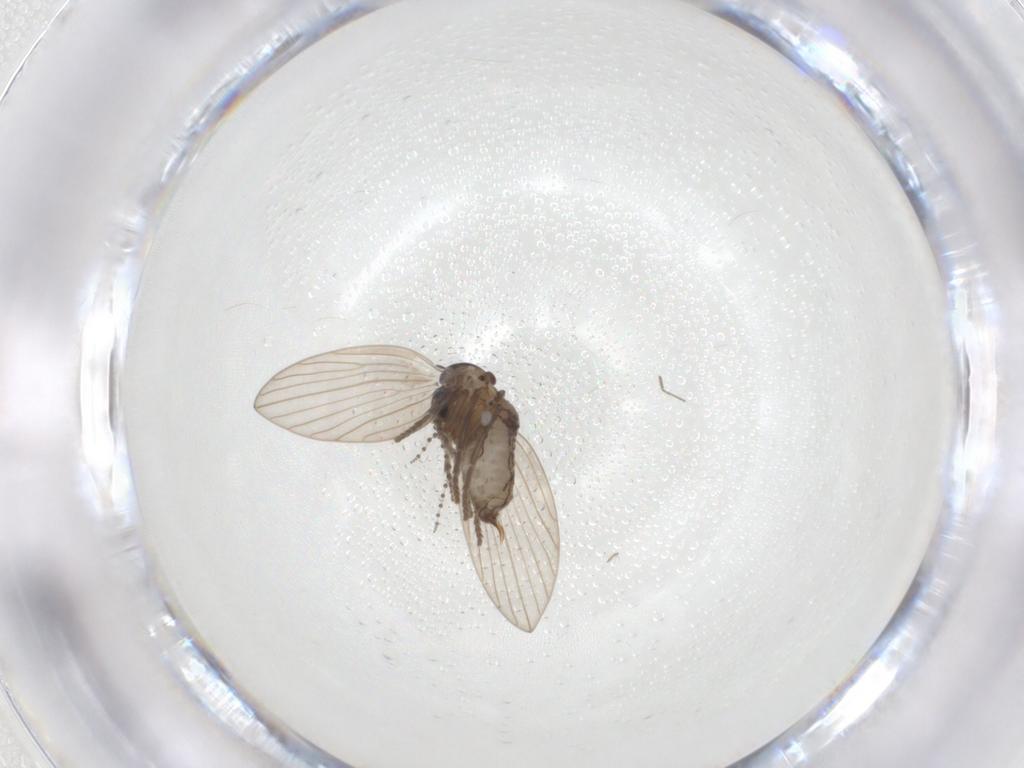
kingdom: Animalia
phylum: Arthropoda
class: Insecta
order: Diptera
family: Psychodidae
